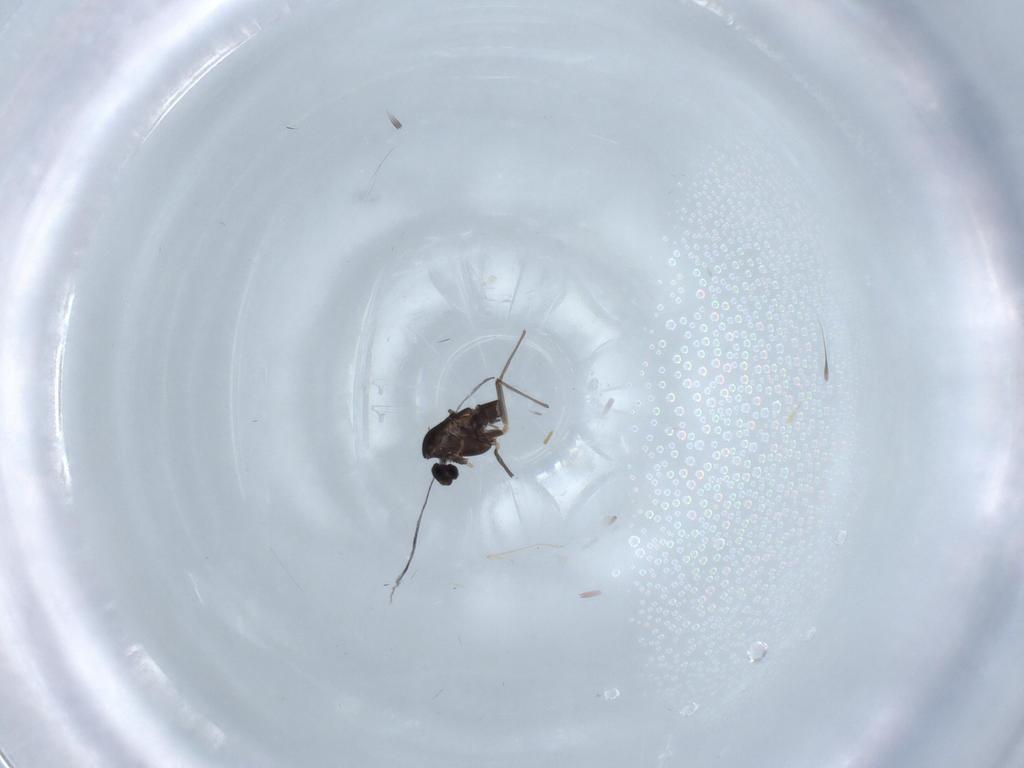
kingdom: Animalia
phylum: Arthropoda
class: Insecta
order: Diptera
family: Chironomidae
